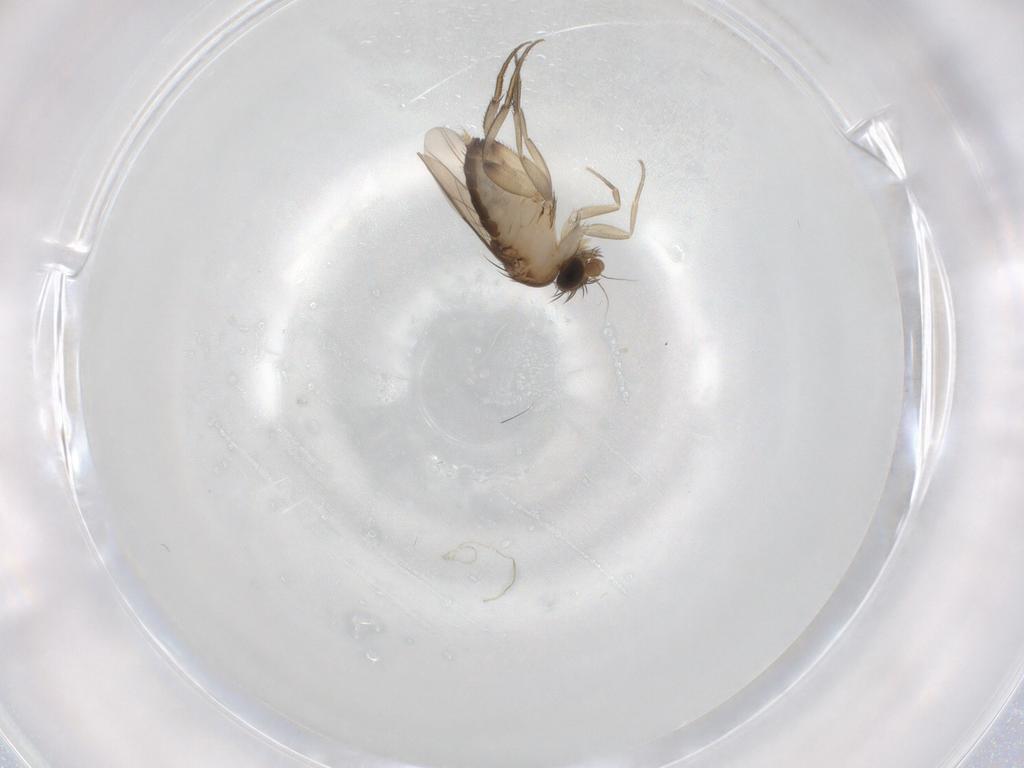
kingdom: Animalia
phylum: Arthropoda
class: Insecta
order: Diptera
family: Phoridae
